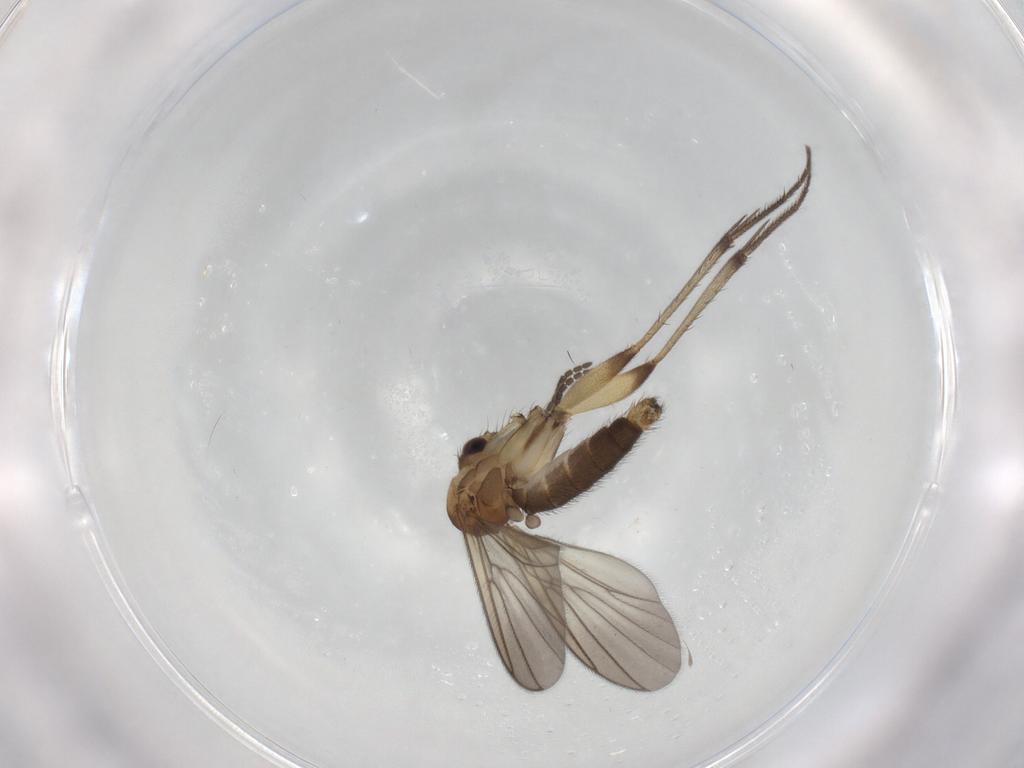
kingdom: Animalia
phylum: Arthropoda
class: Insecta
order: Diptera
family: Mycetophilidae
